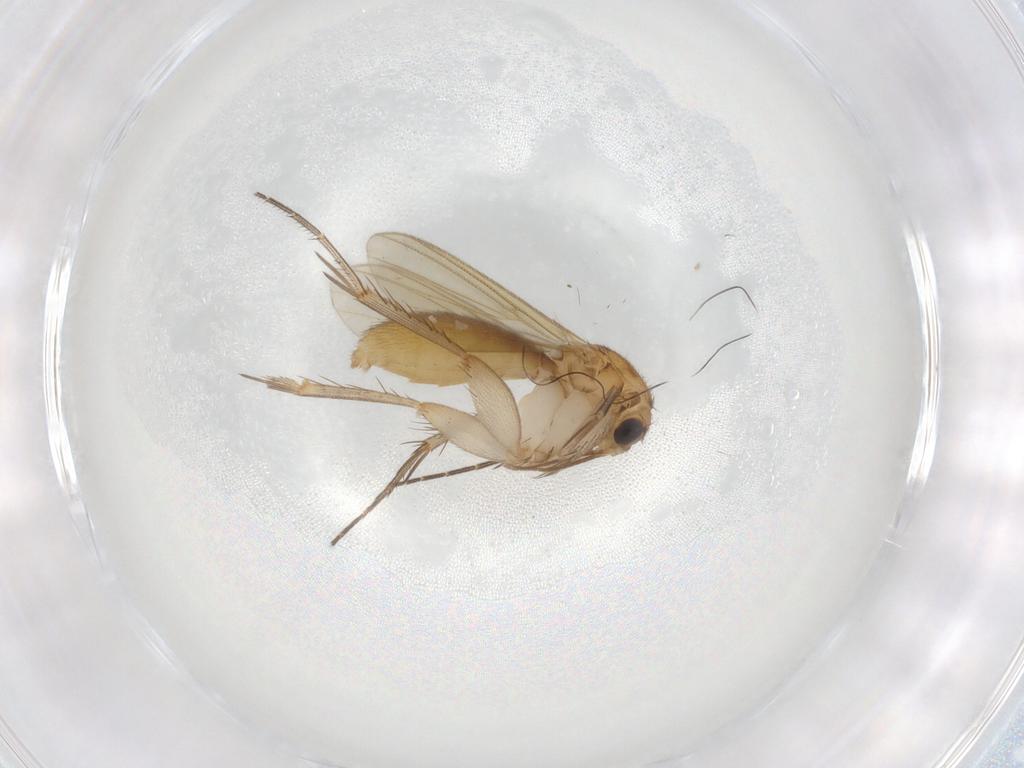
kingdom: Animalia
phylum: Arthropoda
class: Insecta
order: Diptera
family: Mycetophilidae
